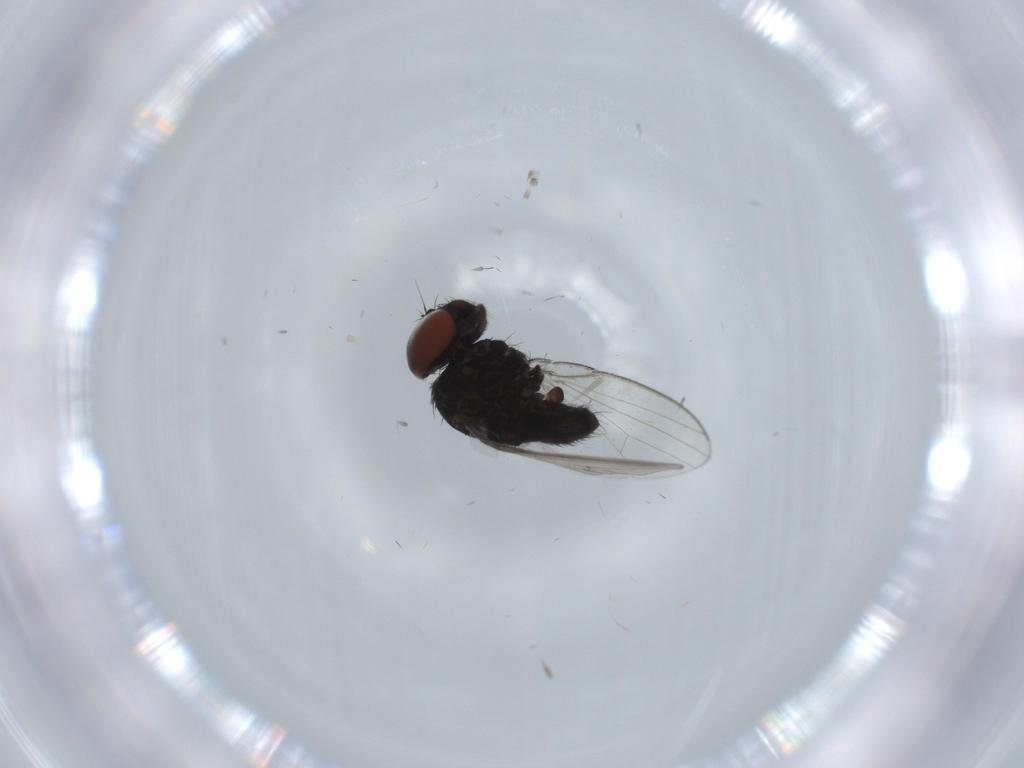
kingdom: Animalia
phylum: Arthropoda
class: Insecta
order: Diptera
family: Milichiidae
